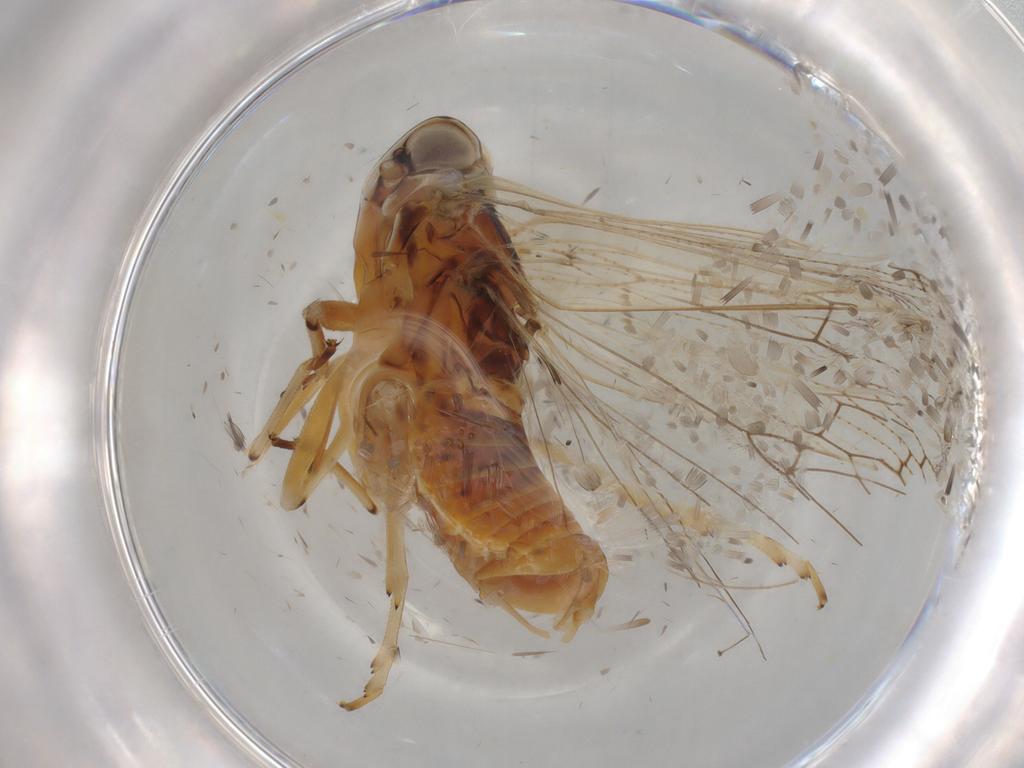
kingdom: Animalia
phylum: Arthropoda
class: Insecta
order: Hemiptera
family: Cixiidae
